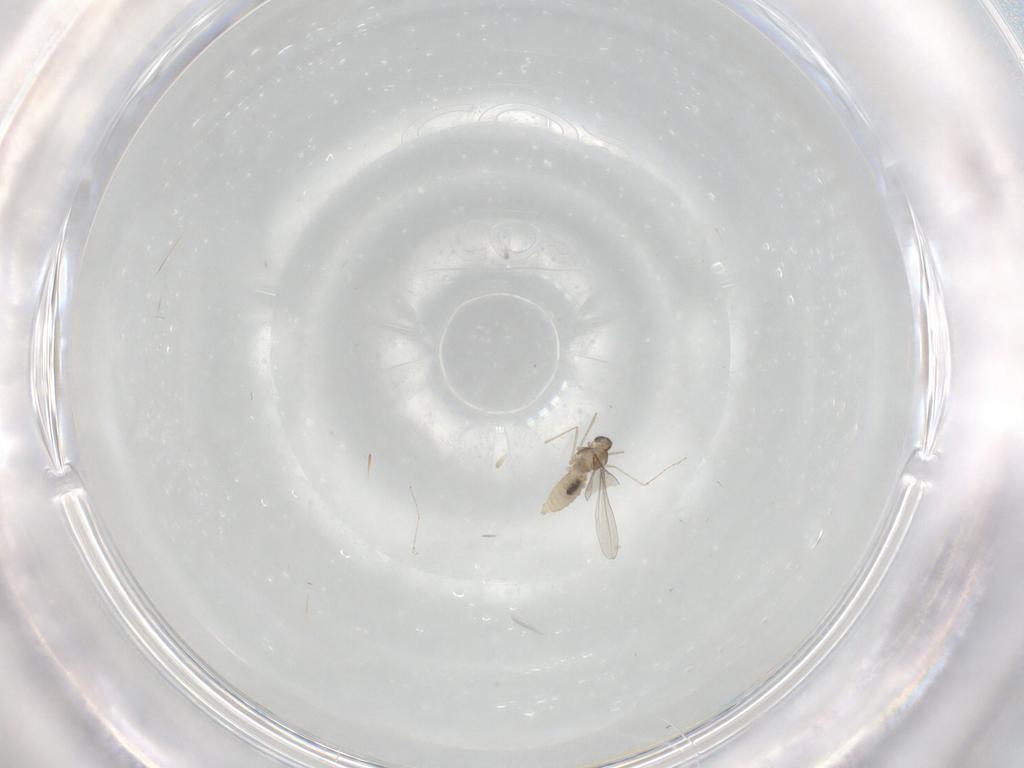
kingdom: Animalia
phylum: Arthropoda
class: Insecta
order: Diptera
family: Cecidomyiidae
